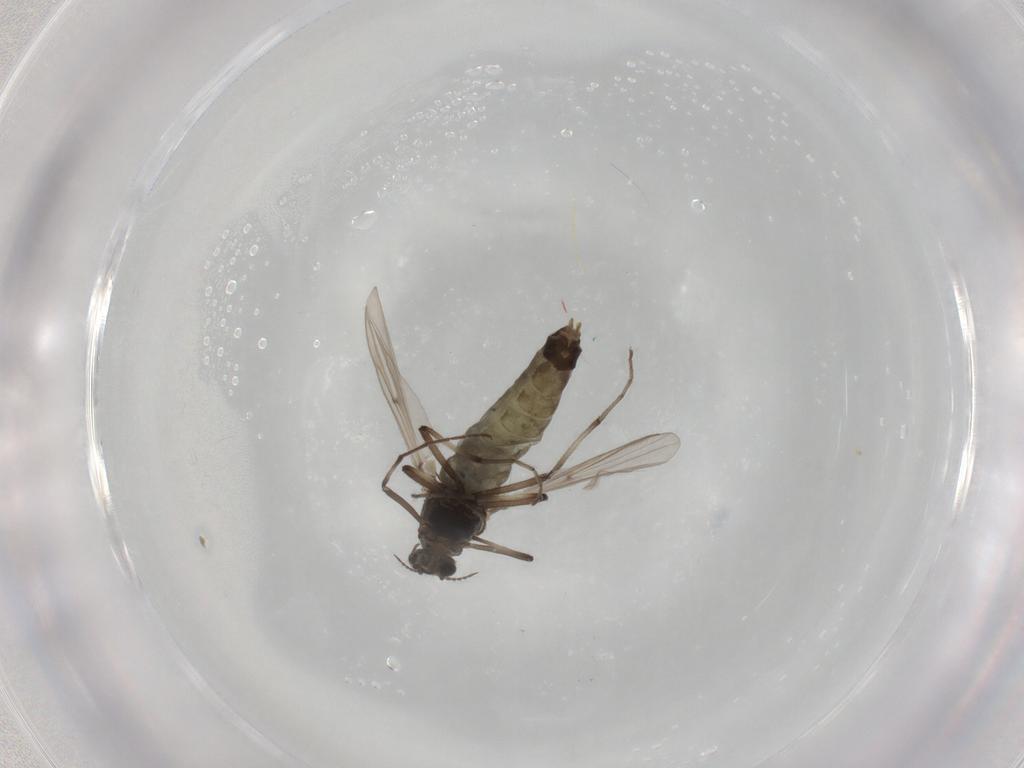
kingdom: Animalia
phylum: Arthropoda
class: Insecta
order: Diptera
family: Chironomidae
